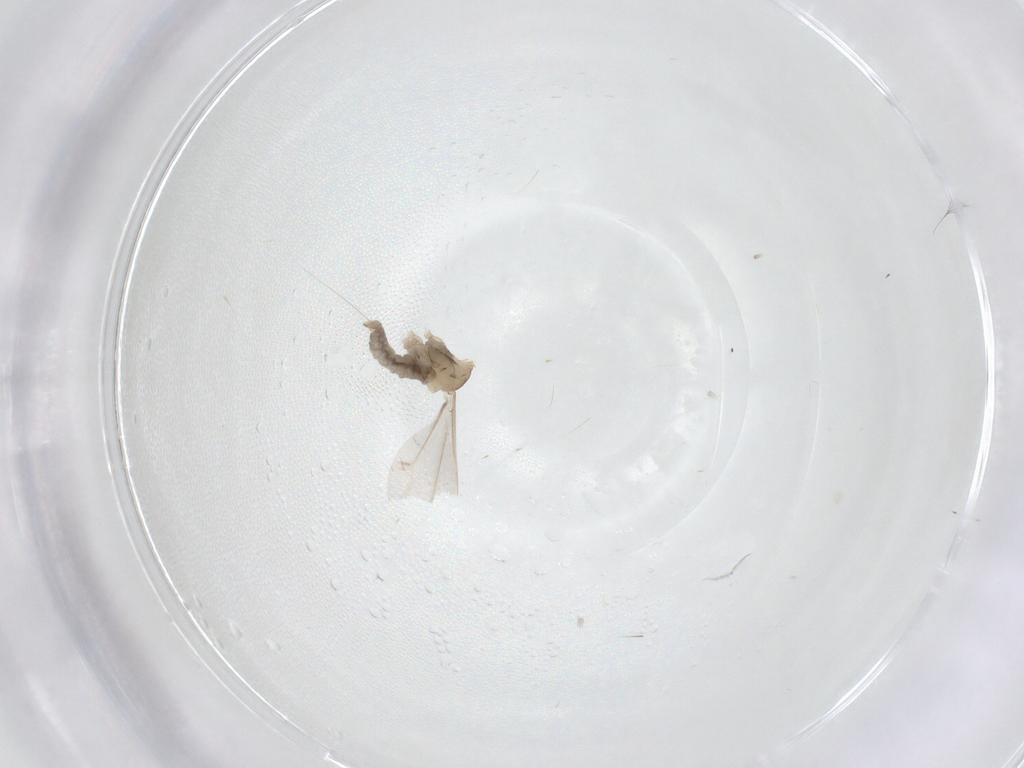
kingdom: Animalia
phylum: Arthropoda
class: Insecta
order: Diptera
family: Cecidomyiidae
